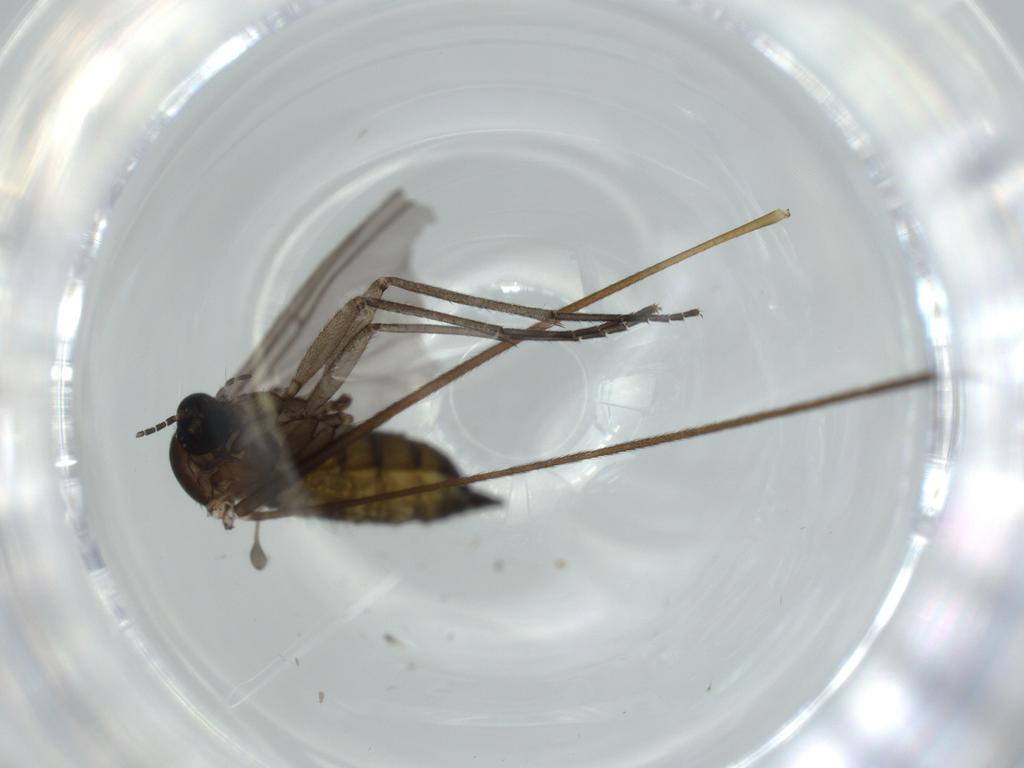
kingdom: Animalia
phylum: Arthropoda
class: Insecta
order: Diptera
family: Sciaridae
